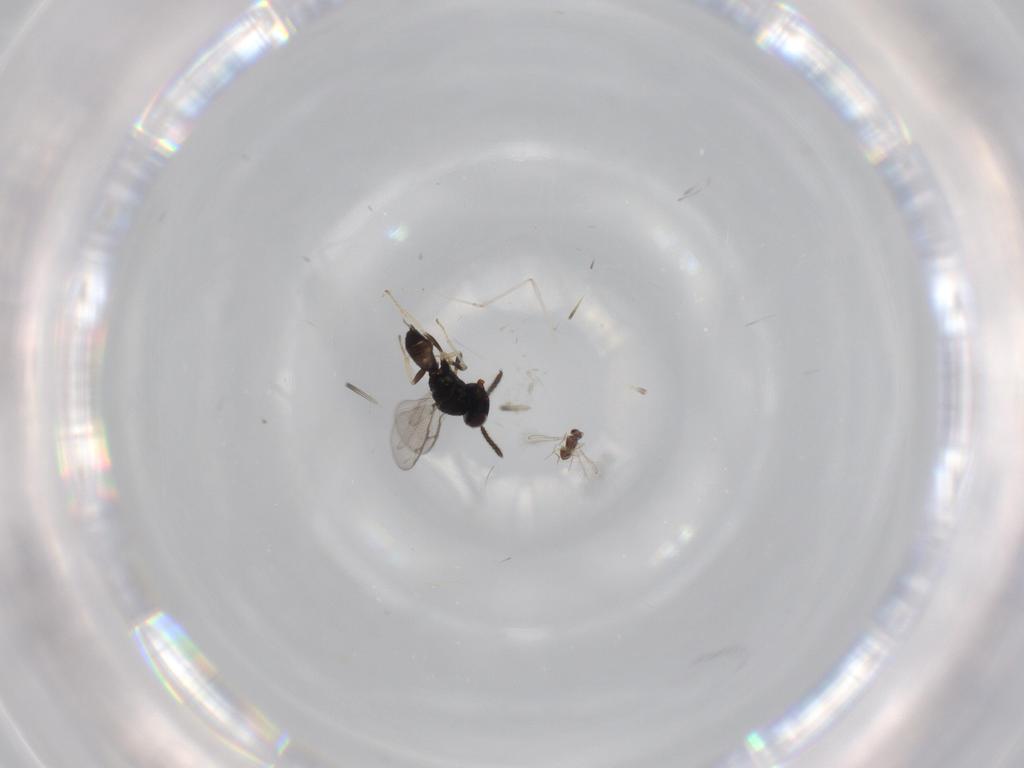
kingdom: Animalia
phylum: Arthropoda
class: Insecta
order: Hymenoptera
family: Pteromalidae
